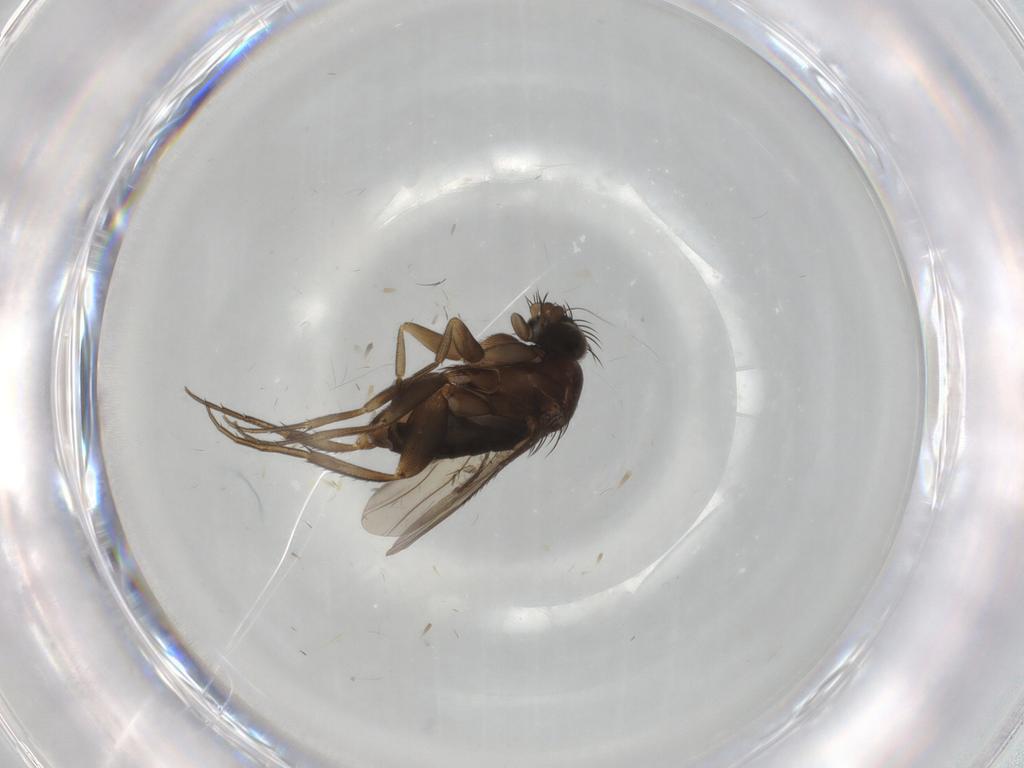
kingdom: Animalia
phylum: Arthropoda
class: Insecta
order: Diptera
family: Phoridae
